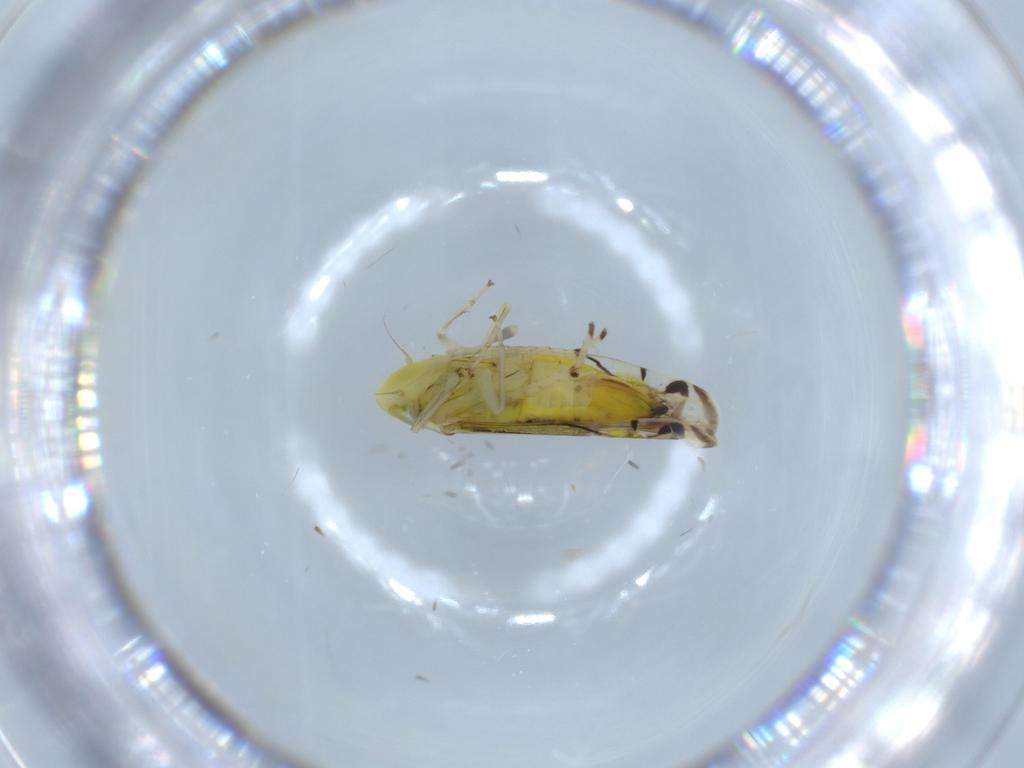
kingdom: Animalia
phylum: Arthropoda
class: Insecta
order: Hemiptera
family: Cicadellidae
